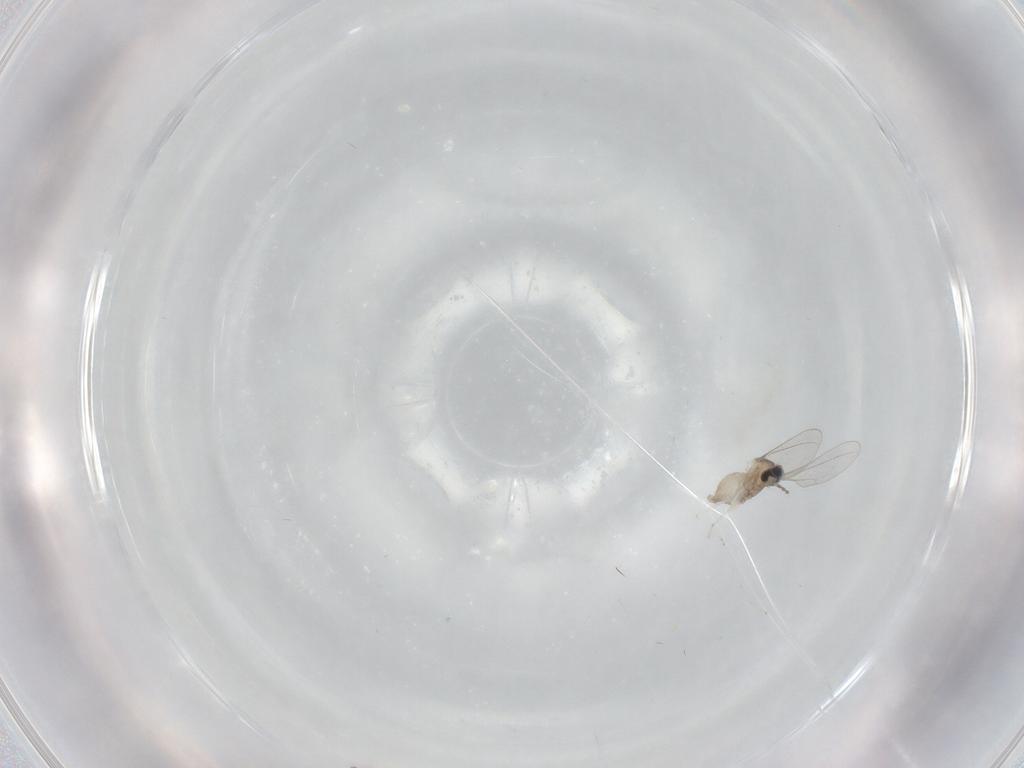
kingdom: Animalia
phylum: Arthropoda
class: Insecta
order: Diptera
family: Cecidomyiidae
